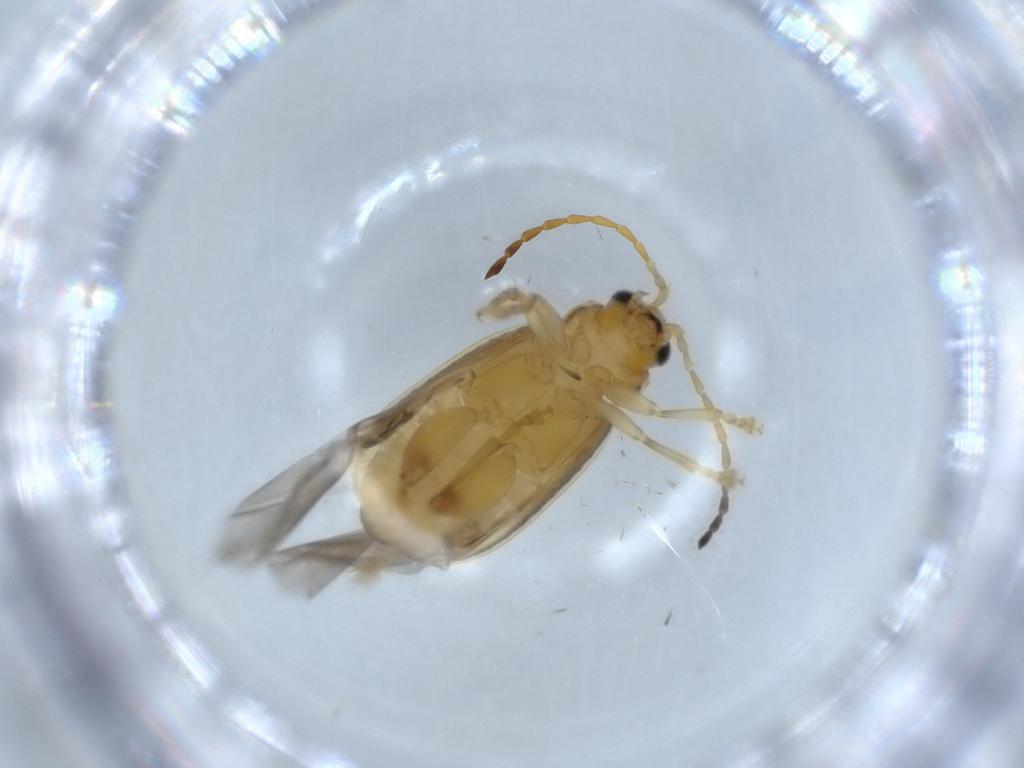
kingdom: Animalia
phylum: Arthropoda
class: Insecta
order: Coleoptera
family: Chrysomelidae
